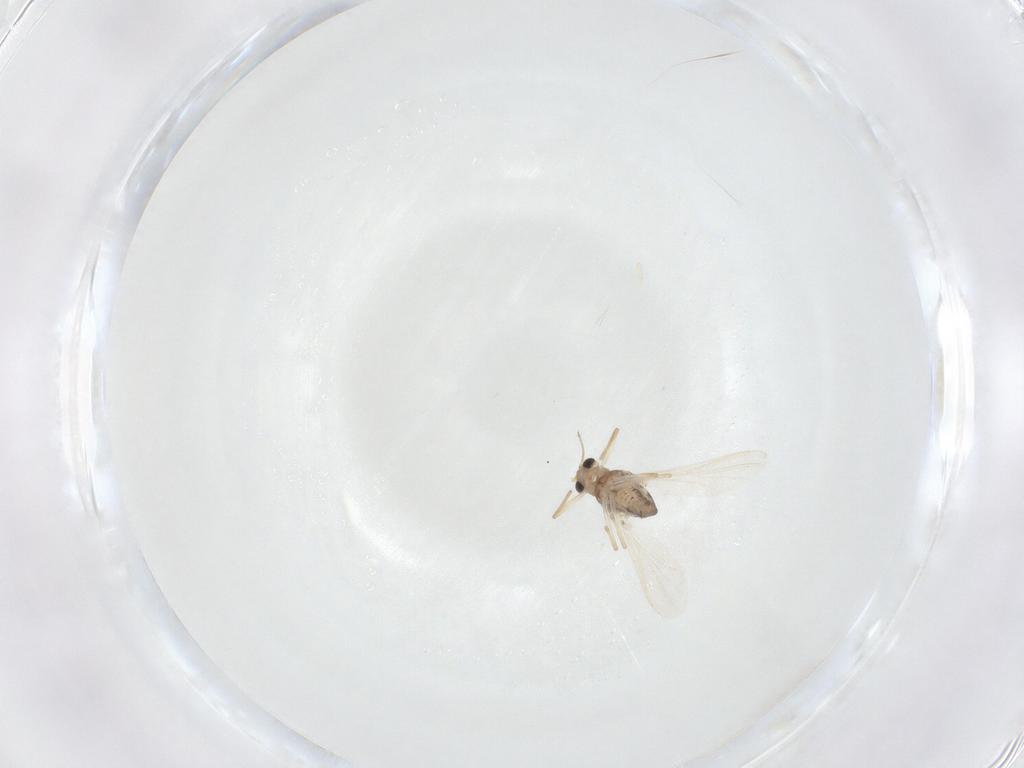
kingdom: Animalia
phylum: Arthropoda
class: Insecta
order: Diptera
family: Chironomidae
